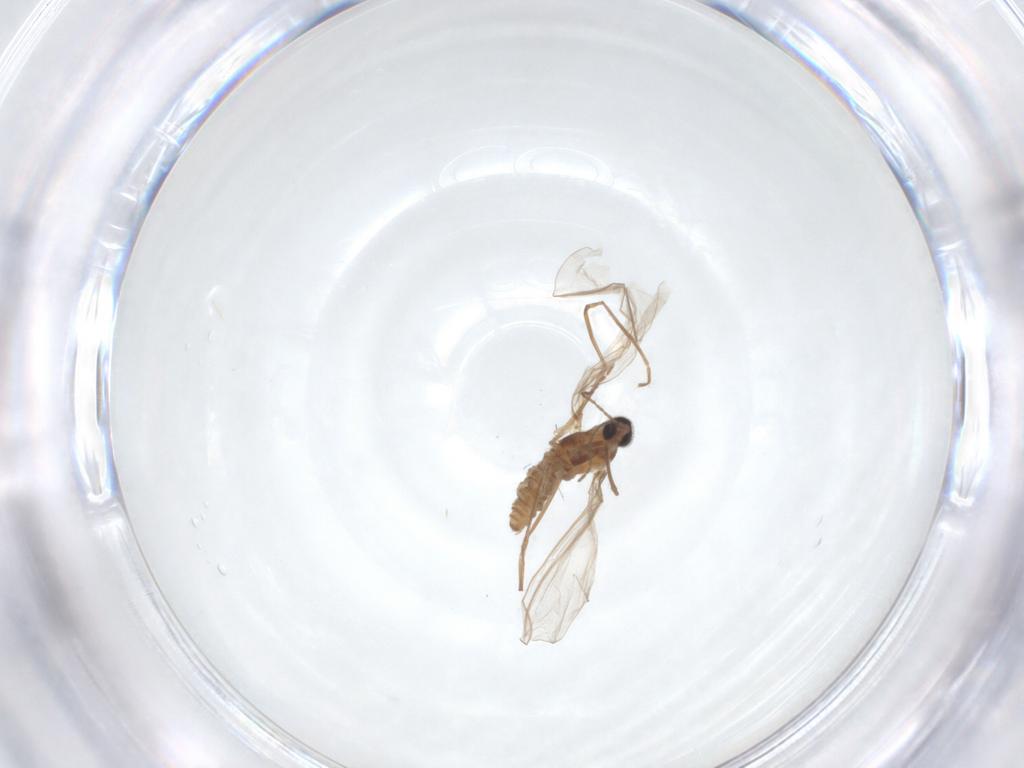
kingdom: Animalia
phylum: Arthropoda
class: Insecta
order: Diptera
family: Cecidomyiidae
